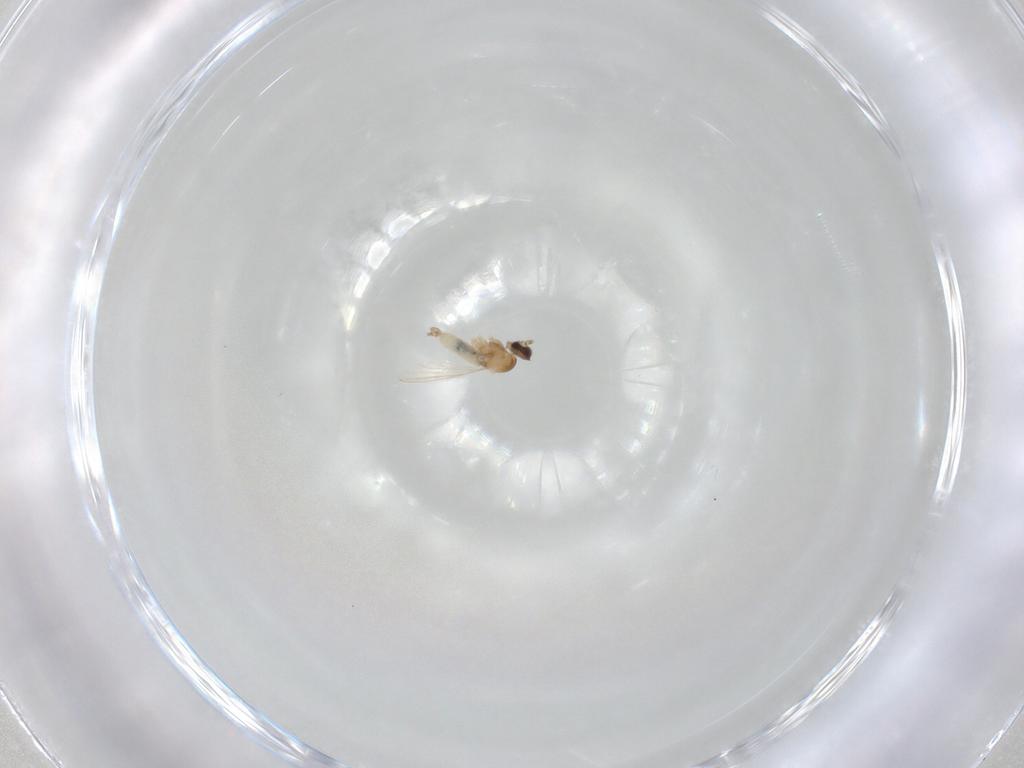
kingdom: Animalia
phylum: Arthropoda
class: Insecta
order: Diptera
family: Cecidomyiidae
